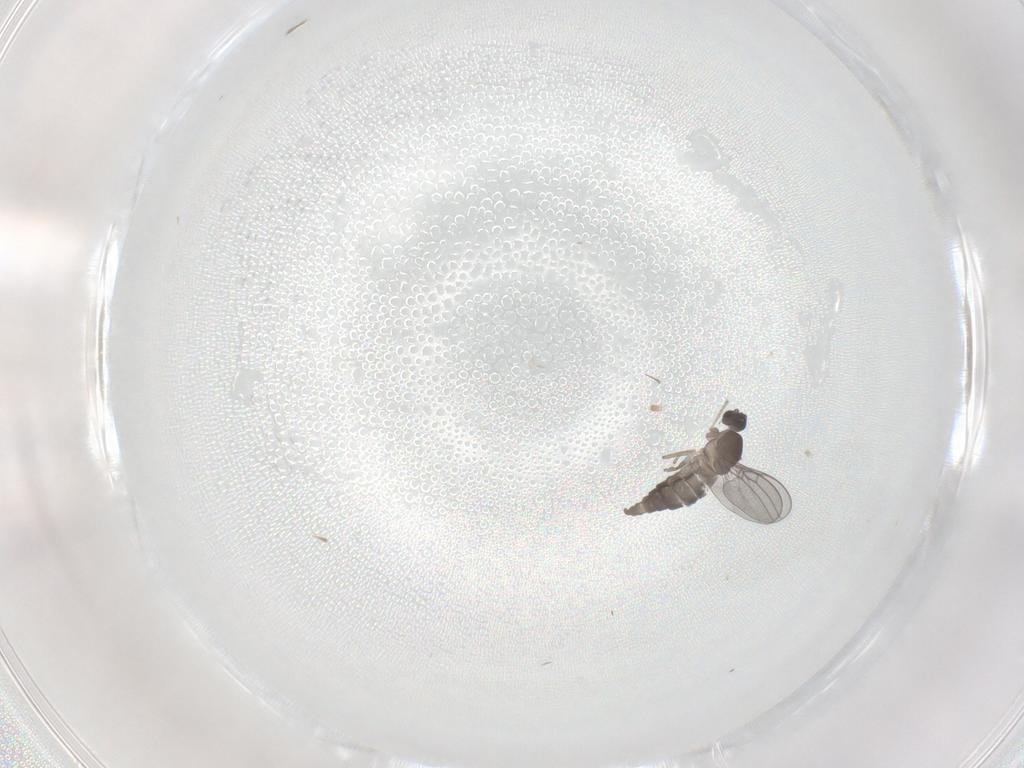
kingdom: Animalia
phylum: Arthropoda
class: Insecta
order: Diptera
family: Cecidomyiidae
